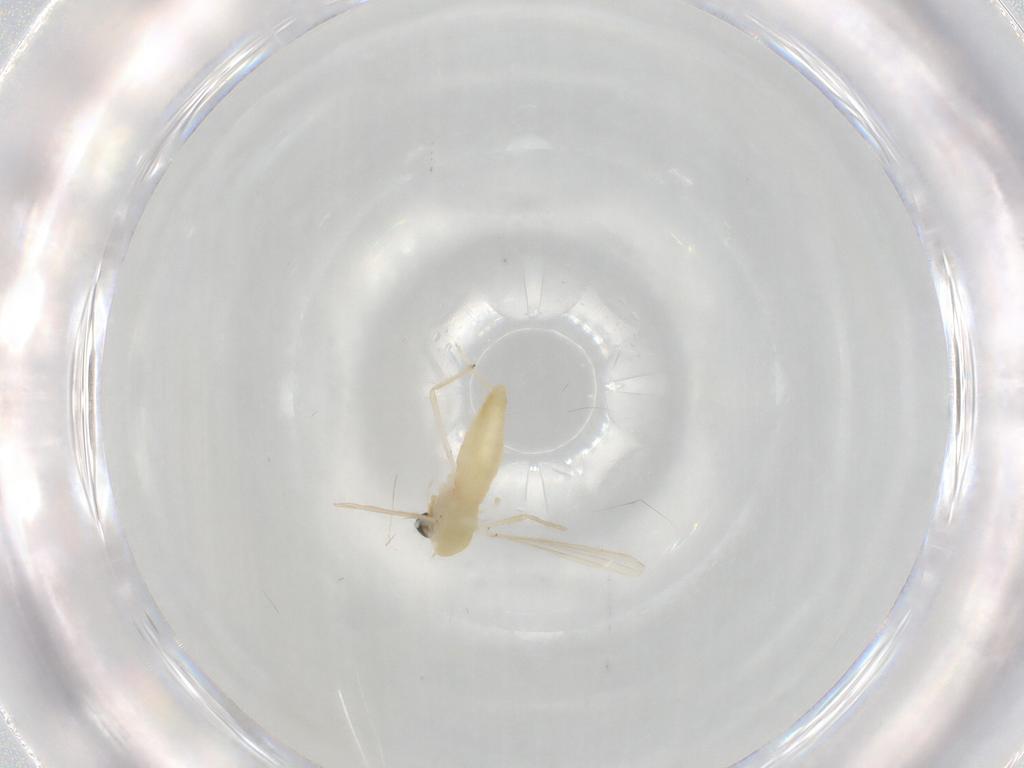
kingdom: Animalia
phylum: Arthropoda
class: Insecta
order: Diptera
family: Chironomidae
